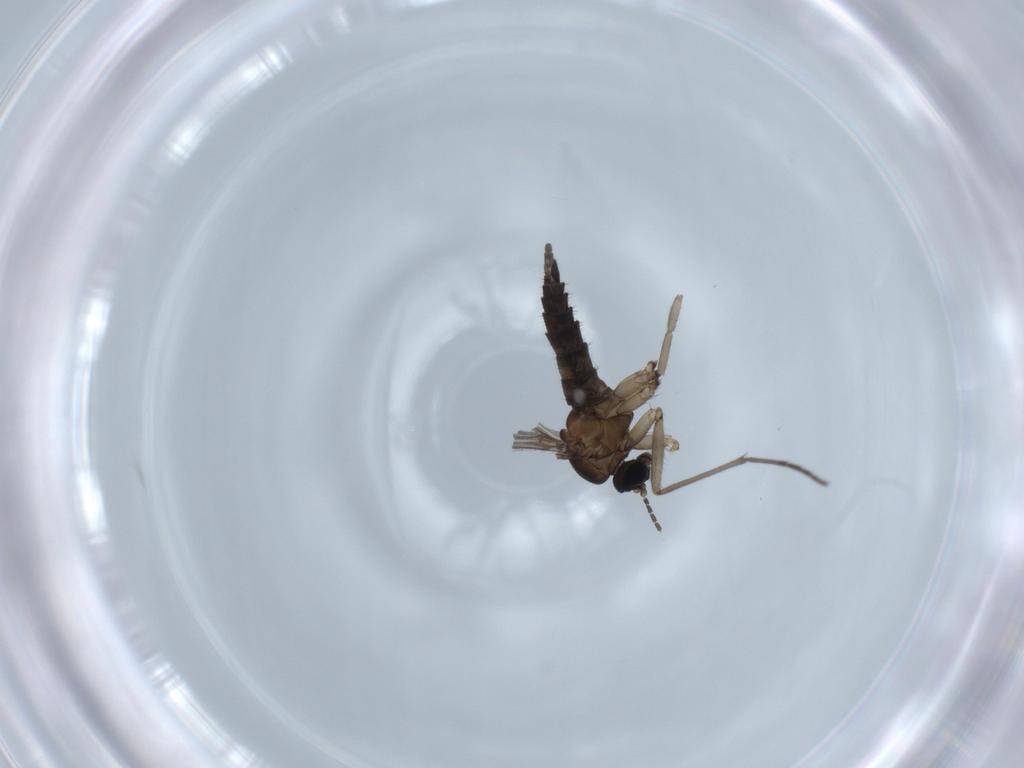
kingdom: Animalia
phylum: Arthropoda
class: Insecta
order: Diptera
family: Sciaridae
